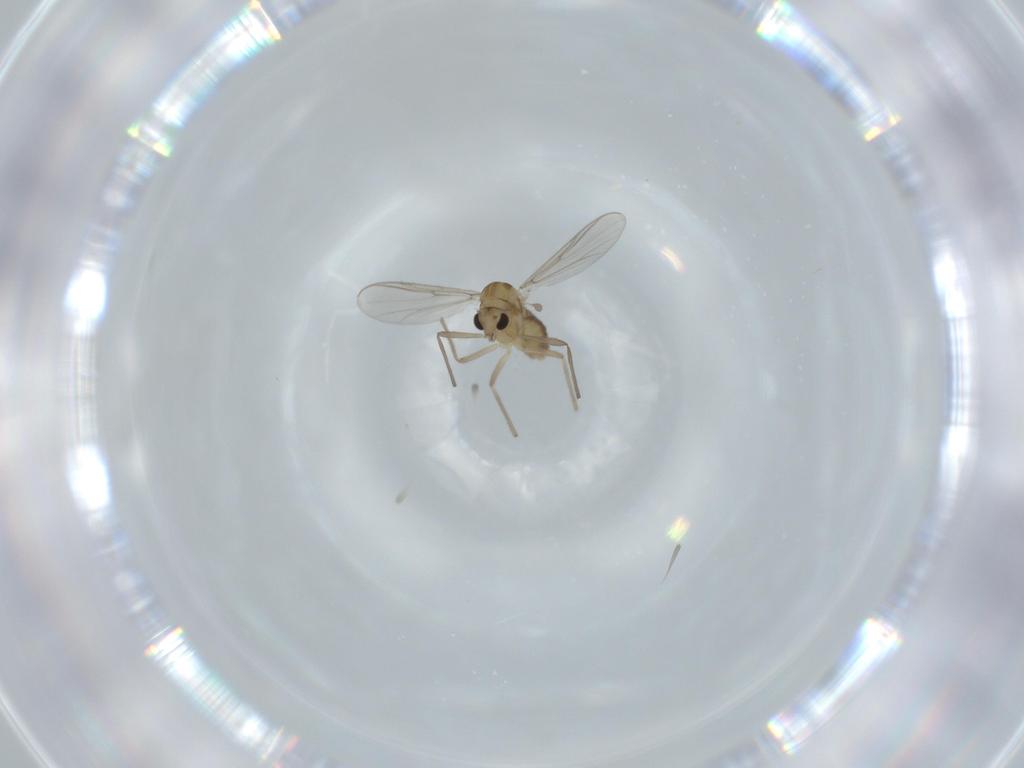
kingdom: Animalia
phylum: Arthropoda
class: Insecta
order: Diptera
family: Chironomidae
